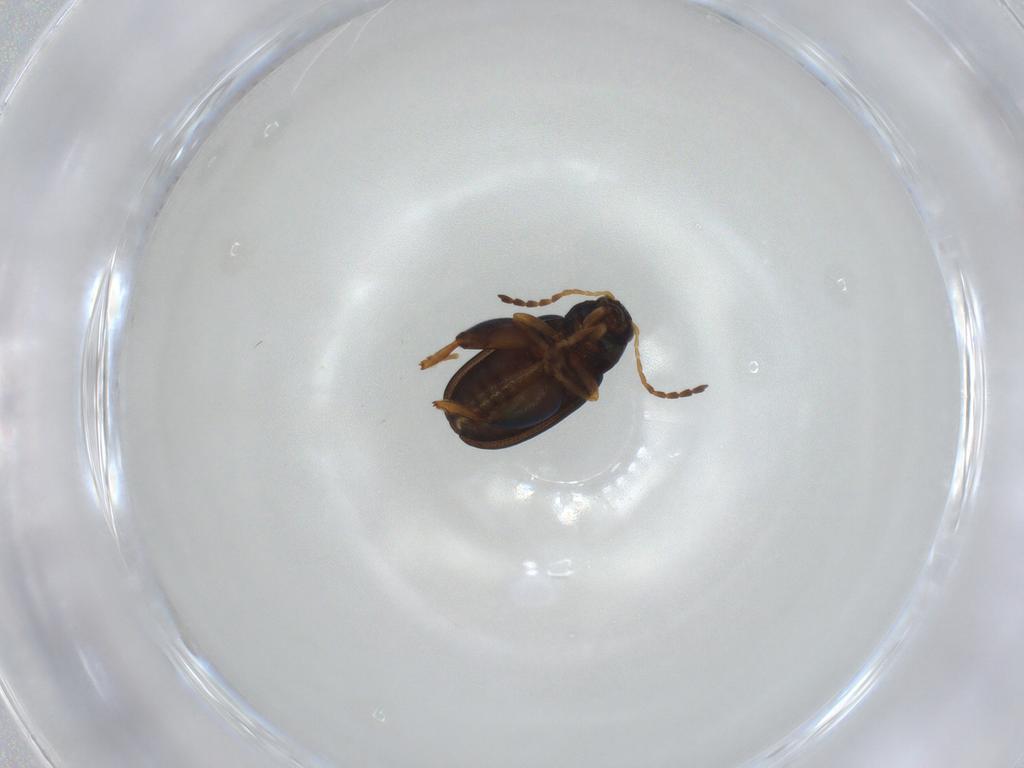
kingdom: Animalia
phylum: Arthropoda
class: Insecta
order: Coleoptera
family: Chrysomelidae
